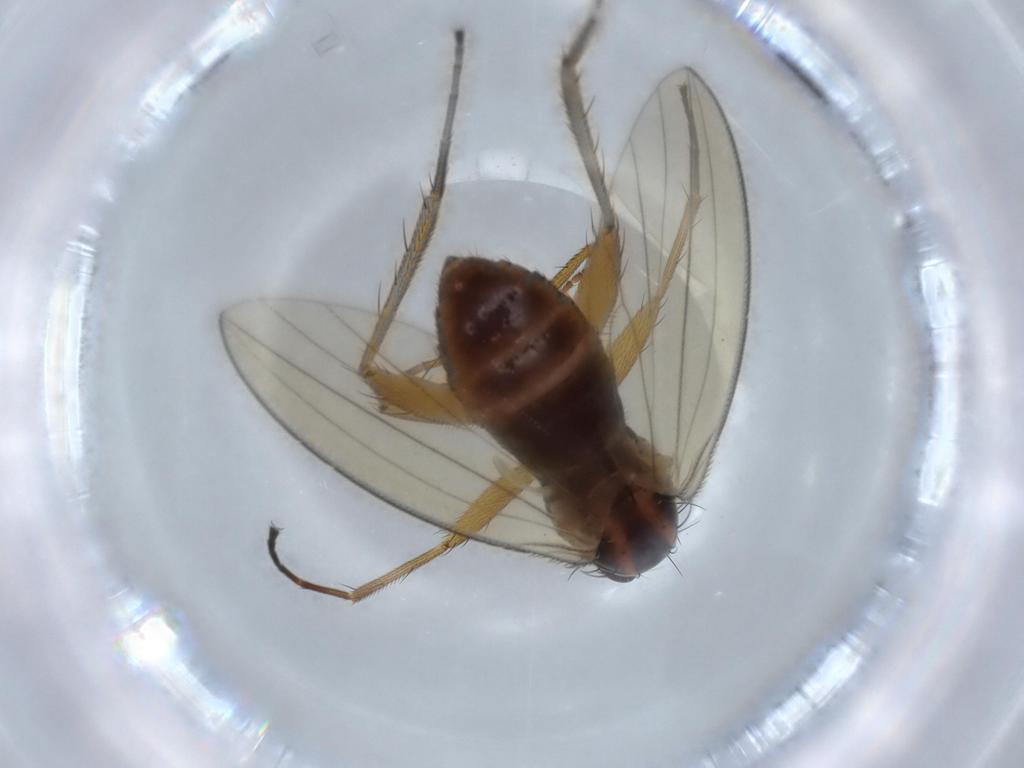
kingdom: Animalia
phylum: Arthropoda
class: Insecta
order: Diptera
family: Lonchopteridae
